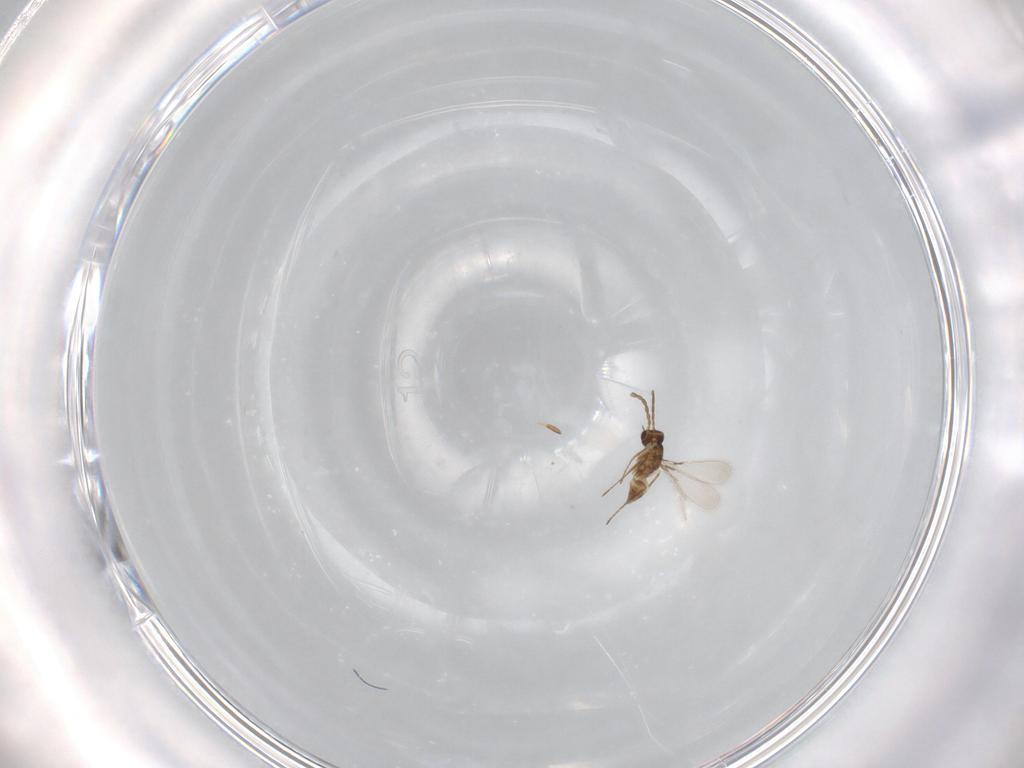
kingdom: Animalia
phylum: Arthropoda
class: Insecta
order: Hymenoptera
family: Mymaridae
